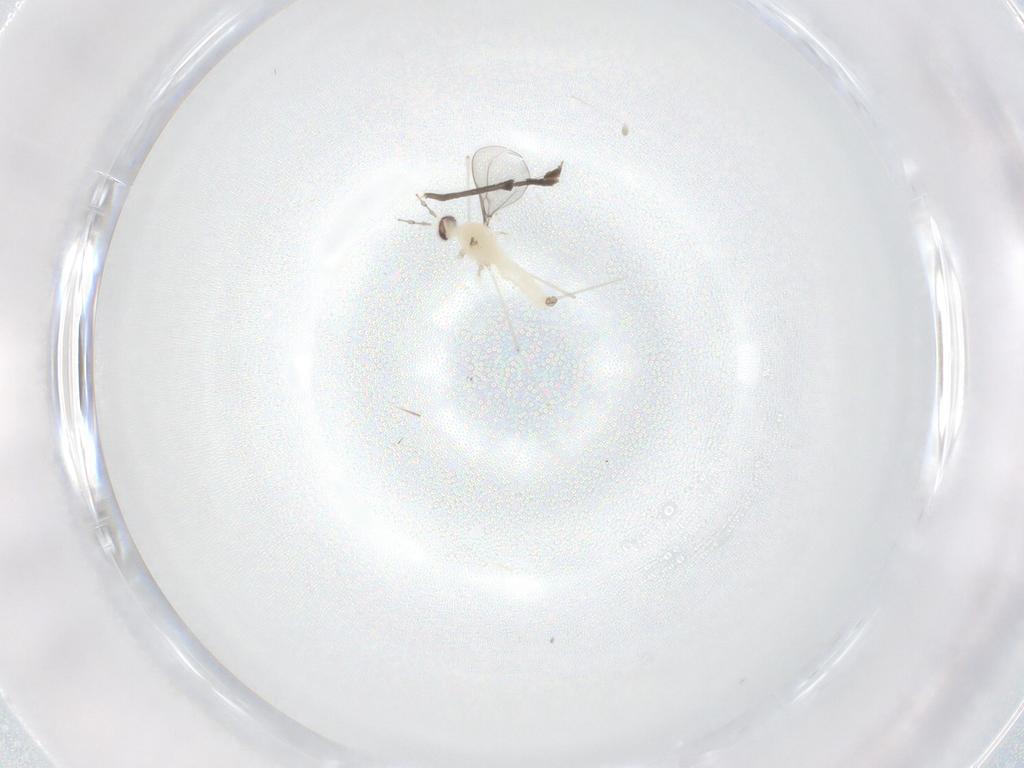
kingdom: Animalia
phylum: Arthropoda
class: Insecta
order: Diptera
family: Cecidomyiidae
